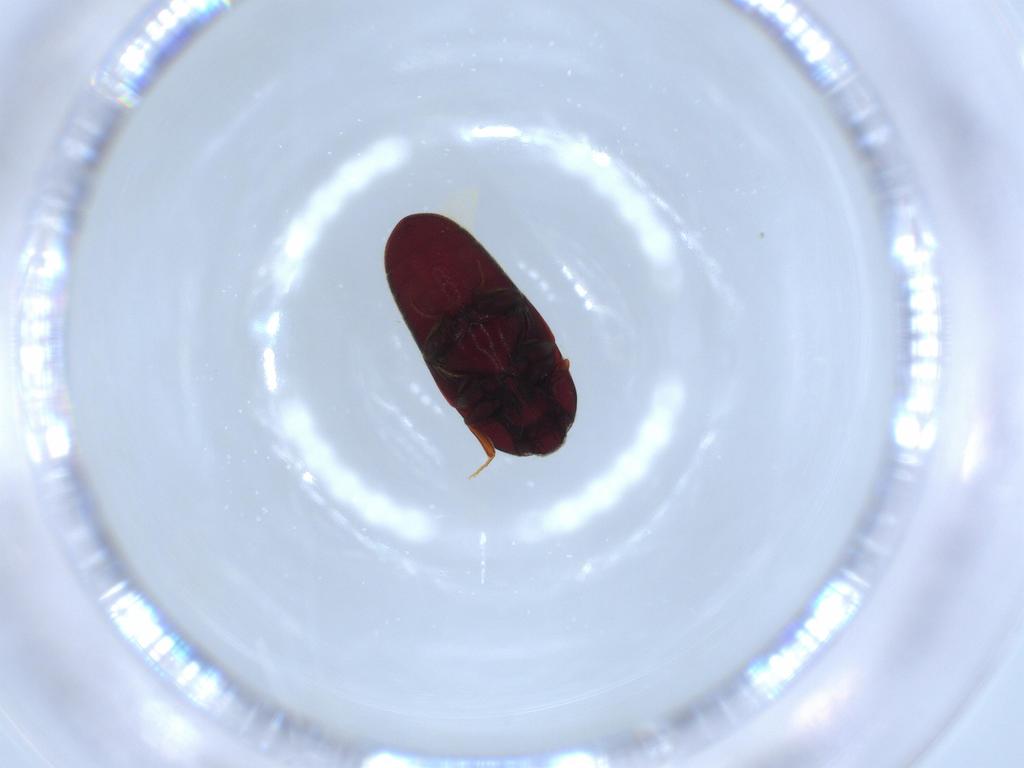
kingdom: Animalia
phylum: Arthropoda
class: Insecta
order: Coleoptera
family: Throscidae
